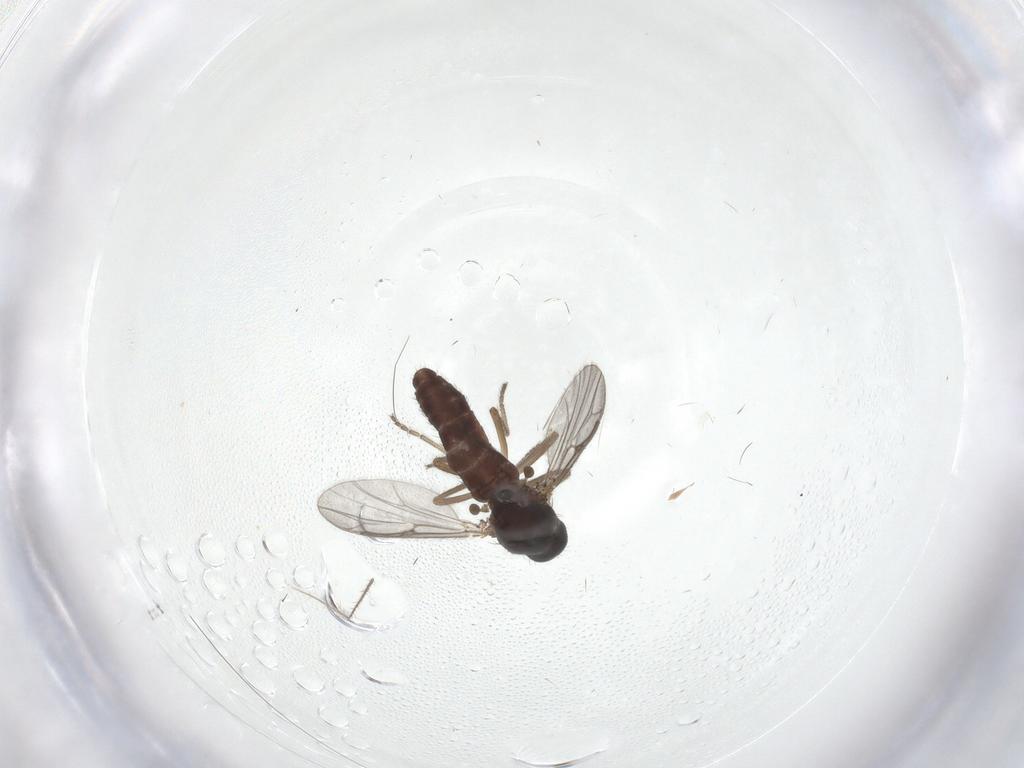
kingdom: Animalia
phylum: Arthropoda
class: Insecta
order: Diptera
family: Ceratopogonidae
